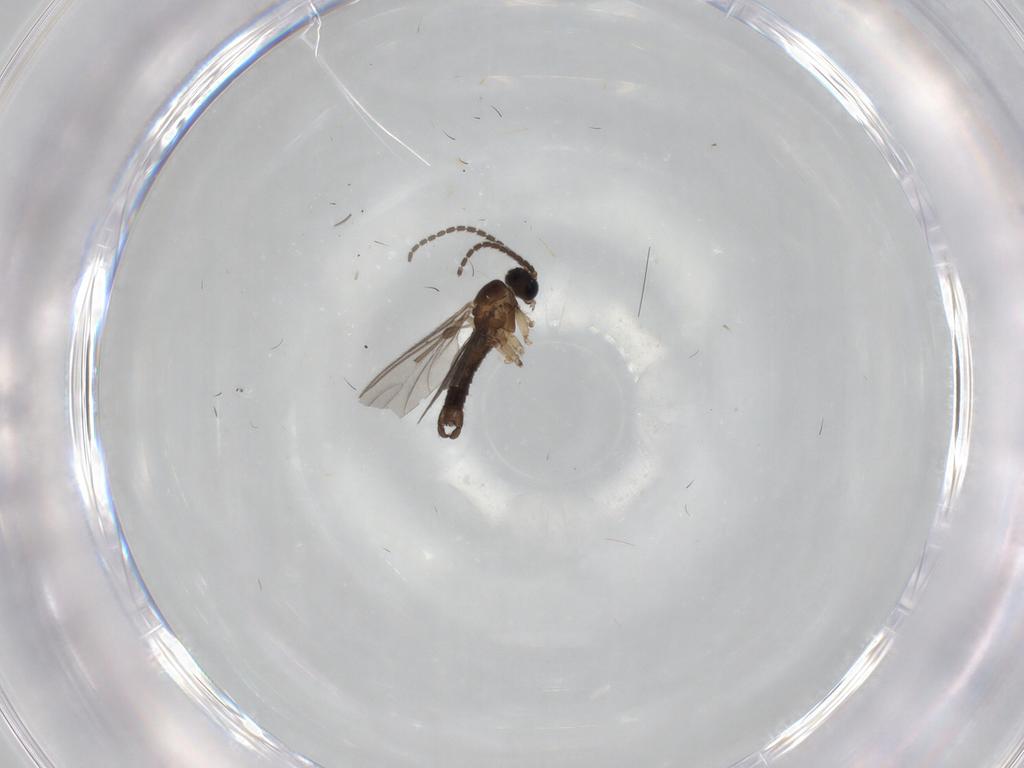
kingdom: Animalia
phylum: Arthropoda
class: Insecta
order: Diptera
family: Sciaridae
